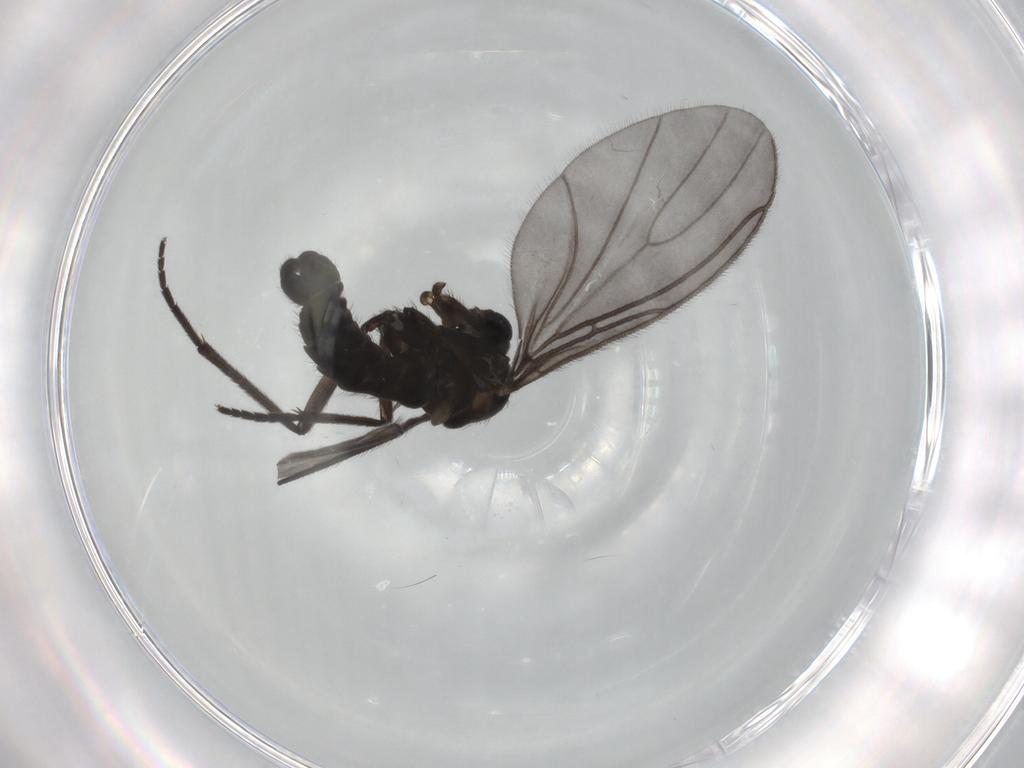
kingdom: Animalia
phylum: Arthropoda
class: Insecta
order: Diptera
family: Sciaridae
